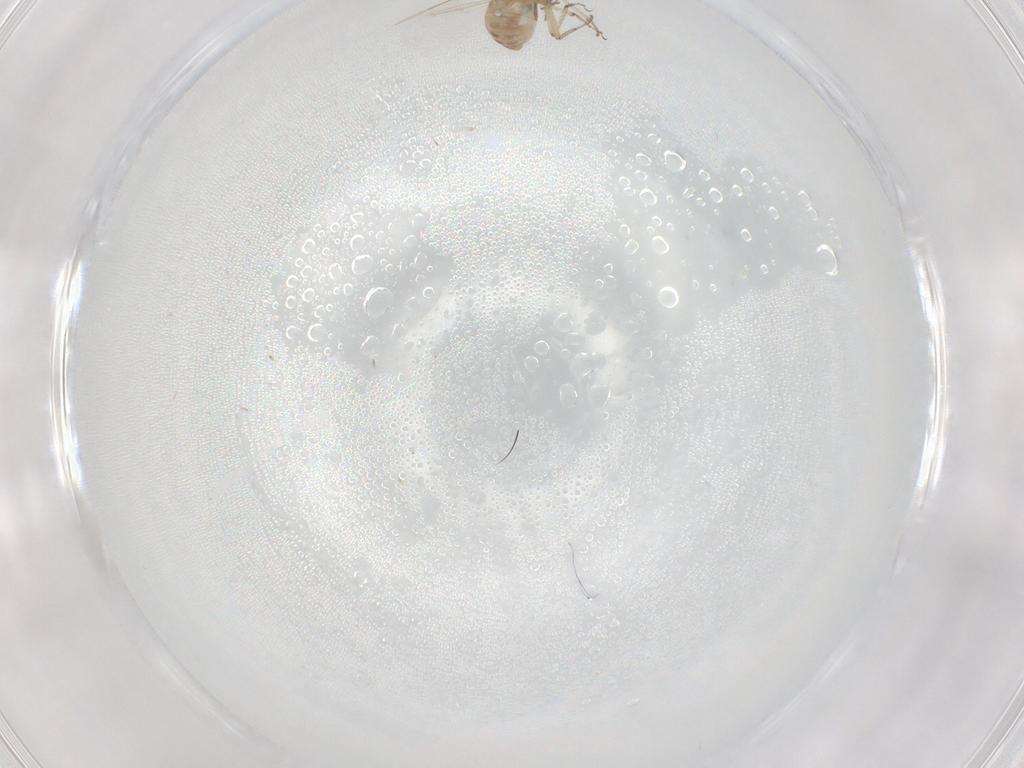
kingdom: Animalia
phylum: Arthropoda
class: Insecta
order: Diptera
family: Ceratopogonidae
